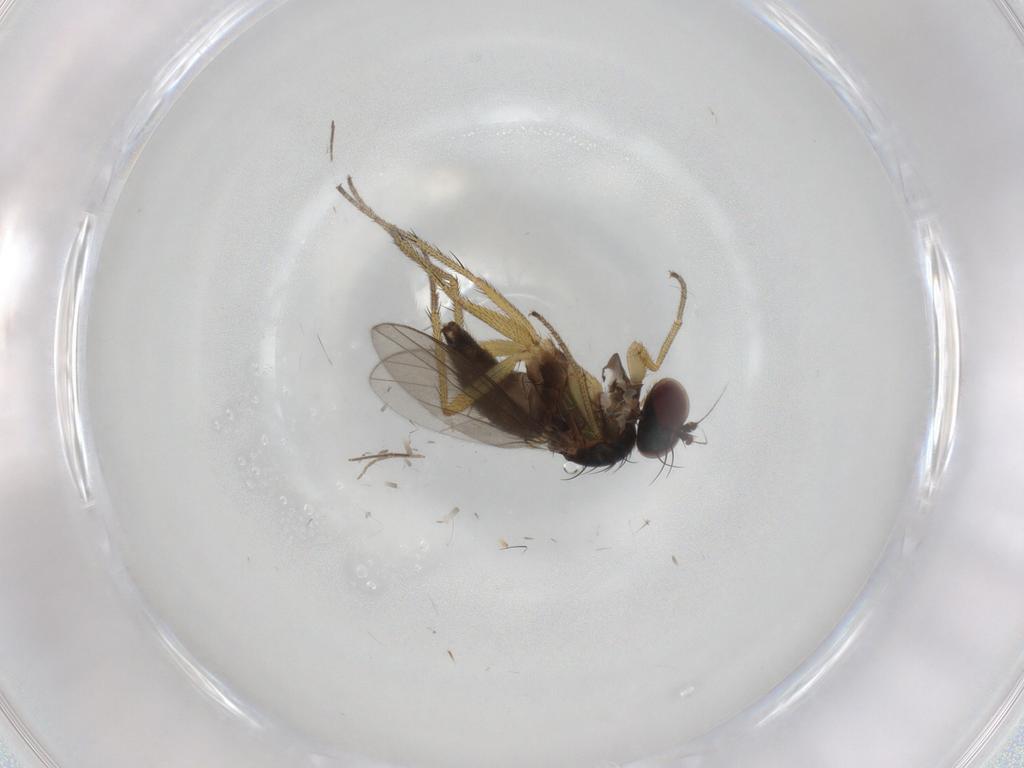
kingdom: Animalia
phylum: Arthropoda
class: Insecta
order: Diptera
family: Dolichopodidae
